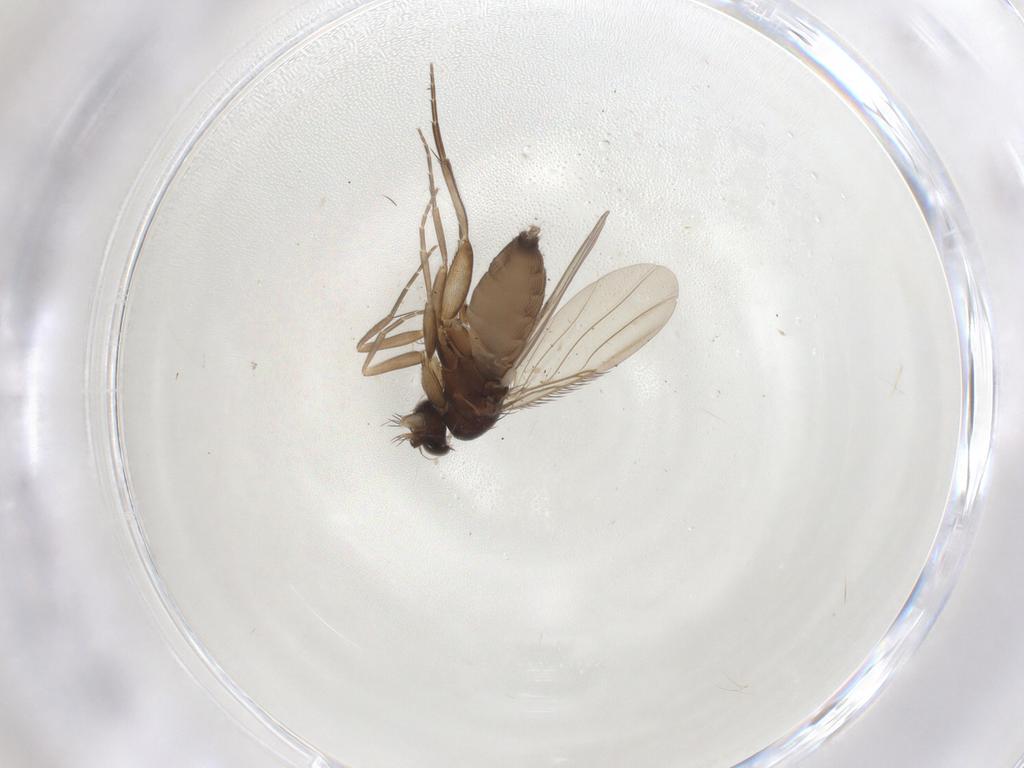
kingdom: Animalia
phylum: Arthropoda
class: Insecta
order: Diptera
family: Phoridae
